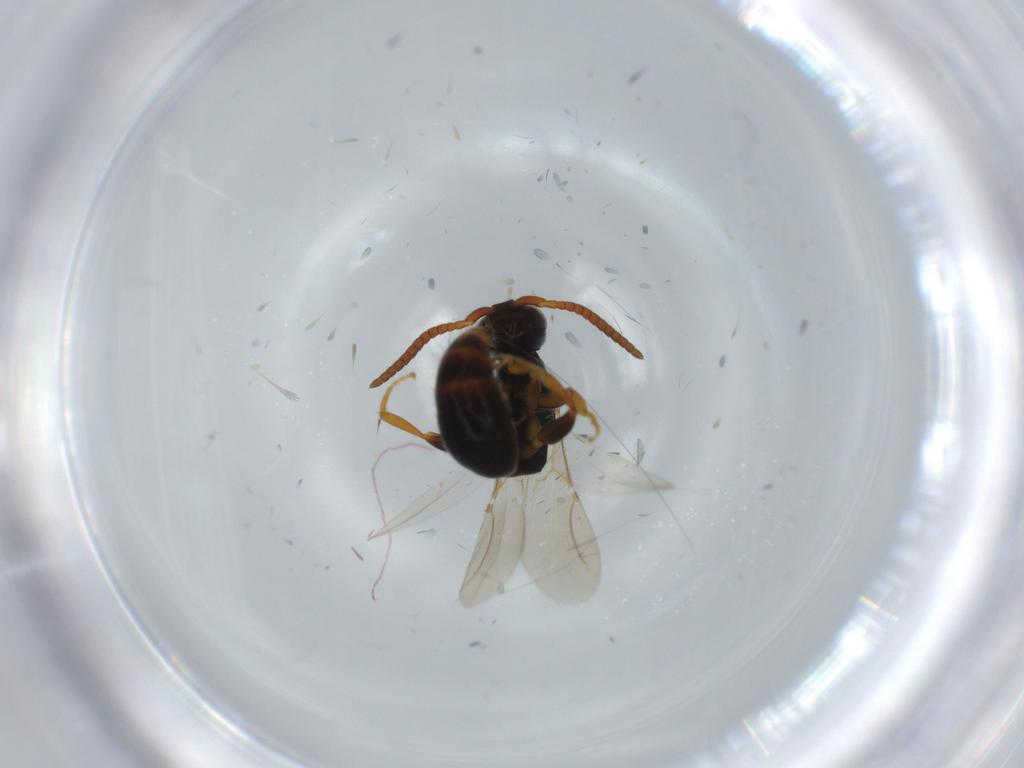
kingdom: Animalia
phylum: Arthropoda
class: Insecta
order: Hymenoptera
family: Bethylidae
